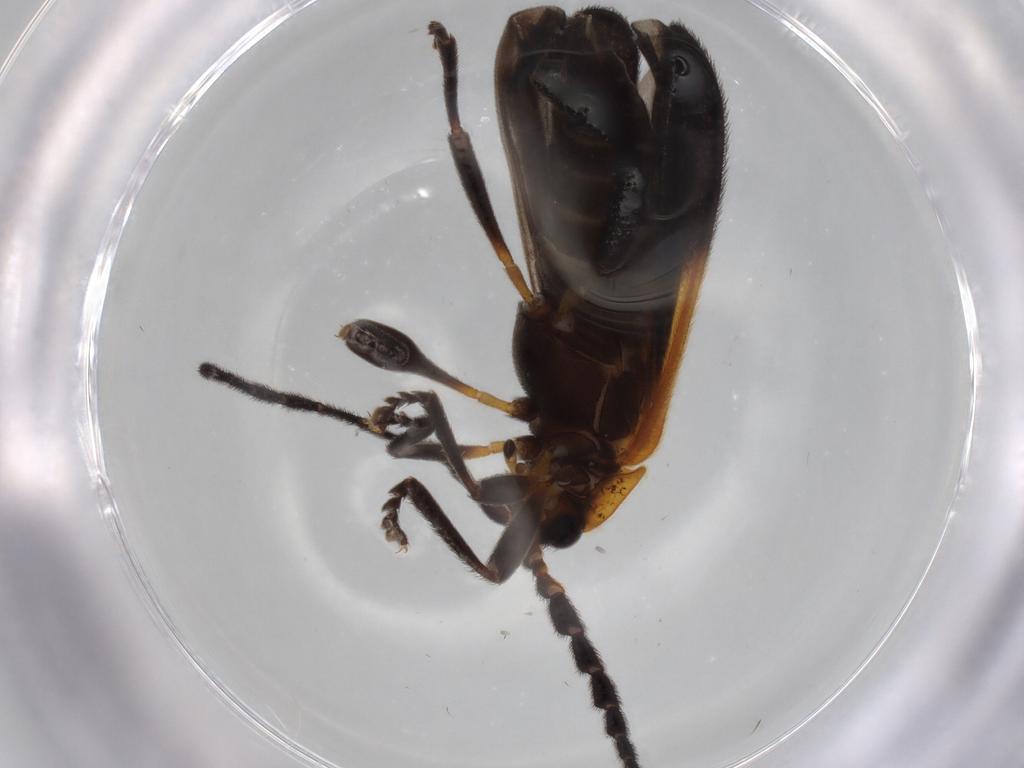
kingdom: Animalia
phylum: Arthropoda
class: Insecta
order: Coleoptera
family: Lycidae
